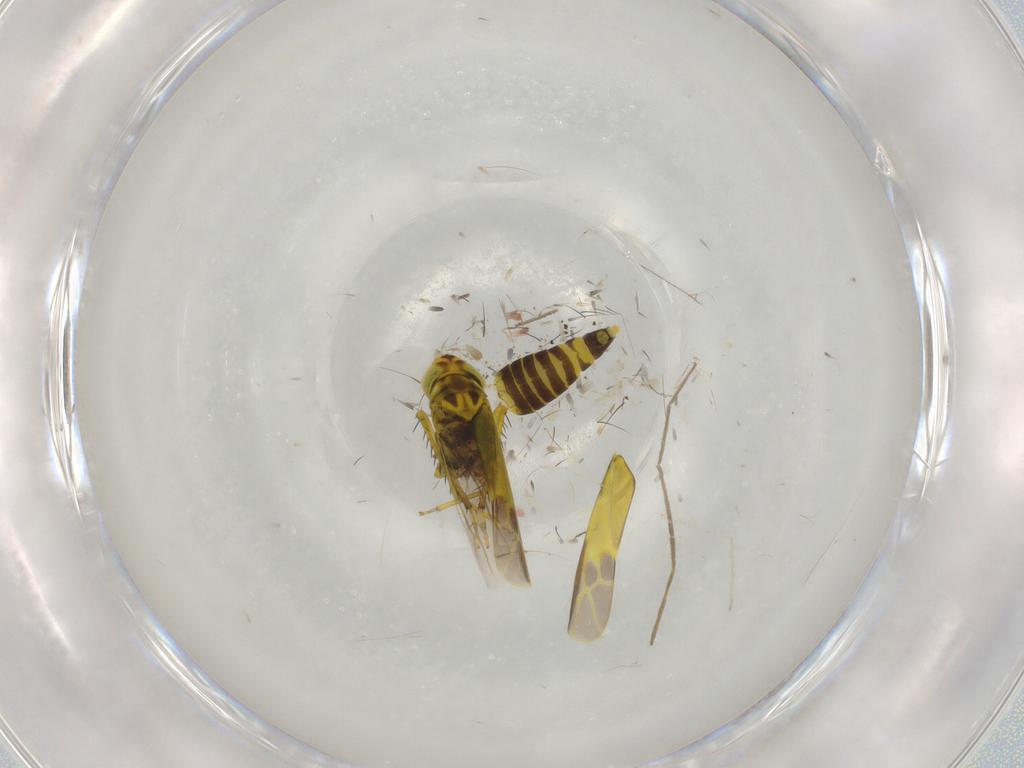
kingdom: Animalia
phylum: Arthropoda
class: Insecta
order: Hemiptera
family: Cicadellidae
